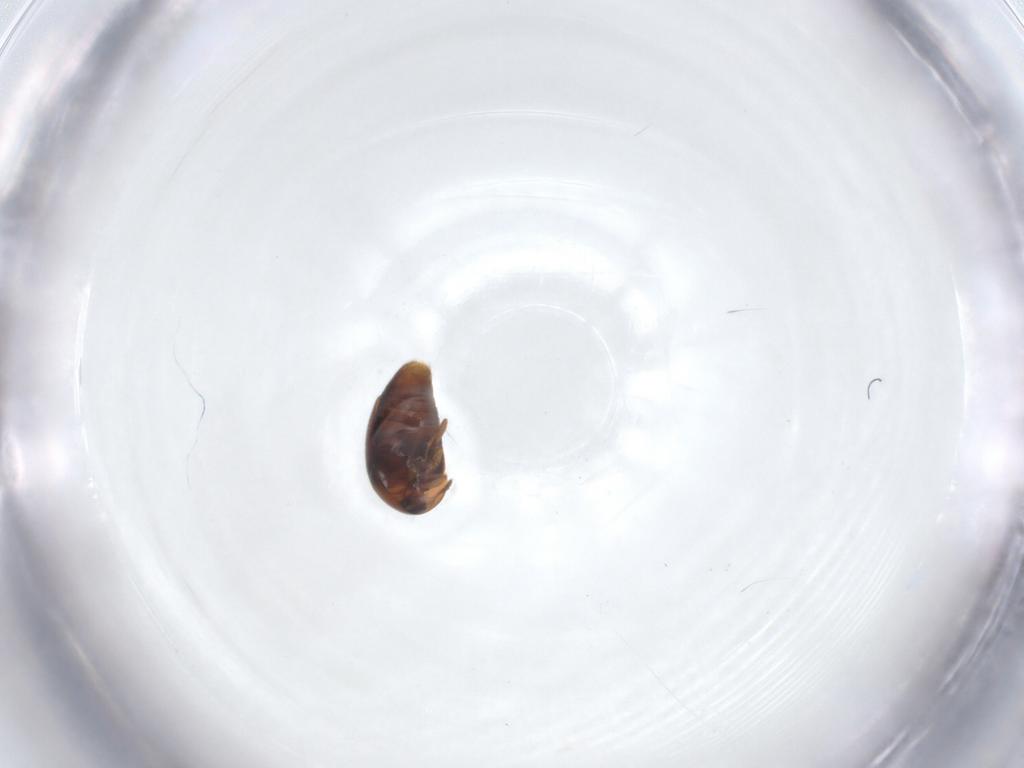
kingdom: Animalia
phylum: Arthropoda
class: Insecta
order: Coleoptera
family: Corylophidae
